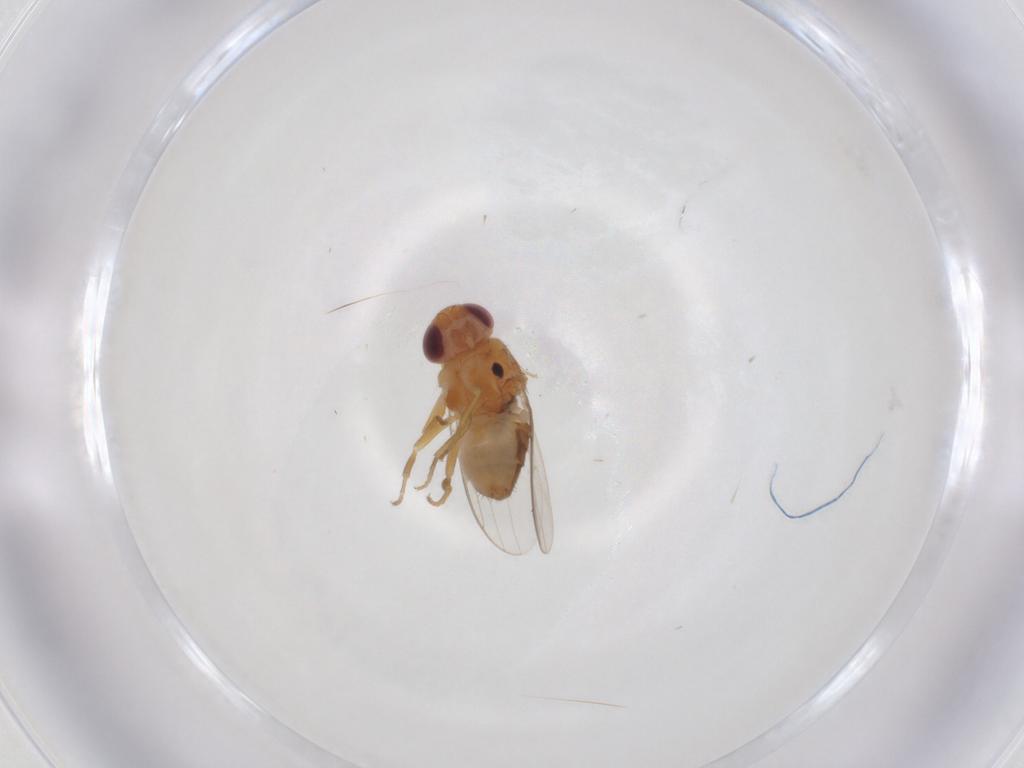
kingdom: Animalia
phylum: Arthropoda
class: Insecta
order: Diptera
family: Chloropidae
